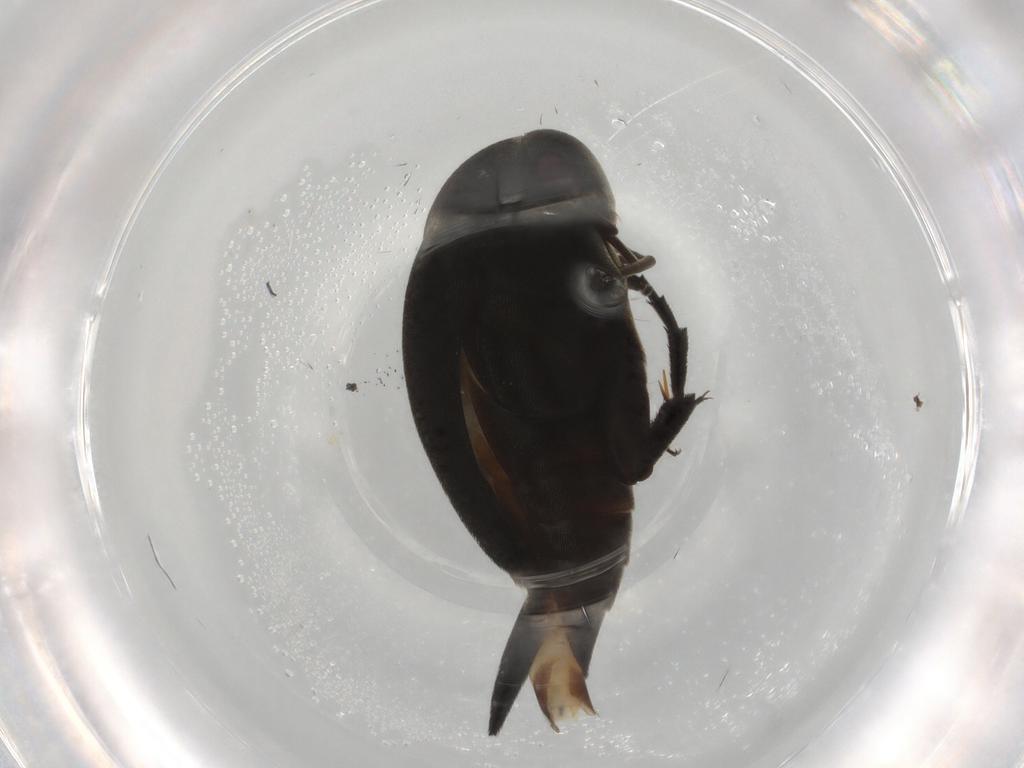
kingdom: Animalia
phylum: Arthropoda
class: Insecta
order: Coleoptera
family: Mordellidae
